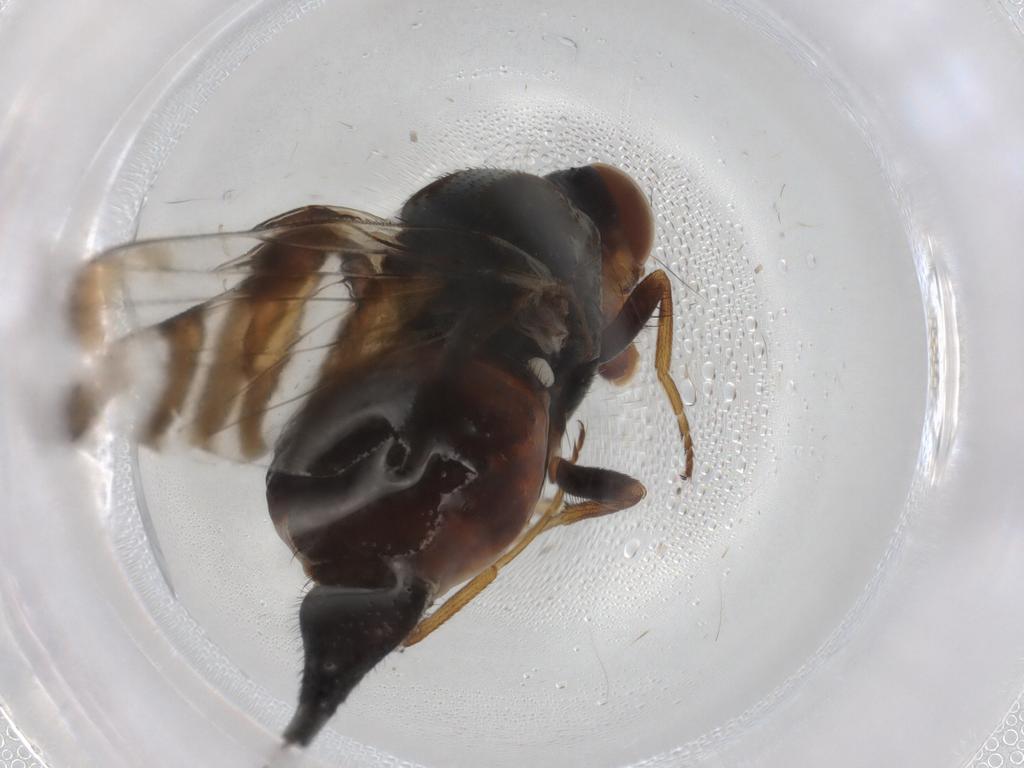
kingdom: Animalia
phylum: Arthropoda
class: Insecta
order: Diptera
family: Ulidiidae
